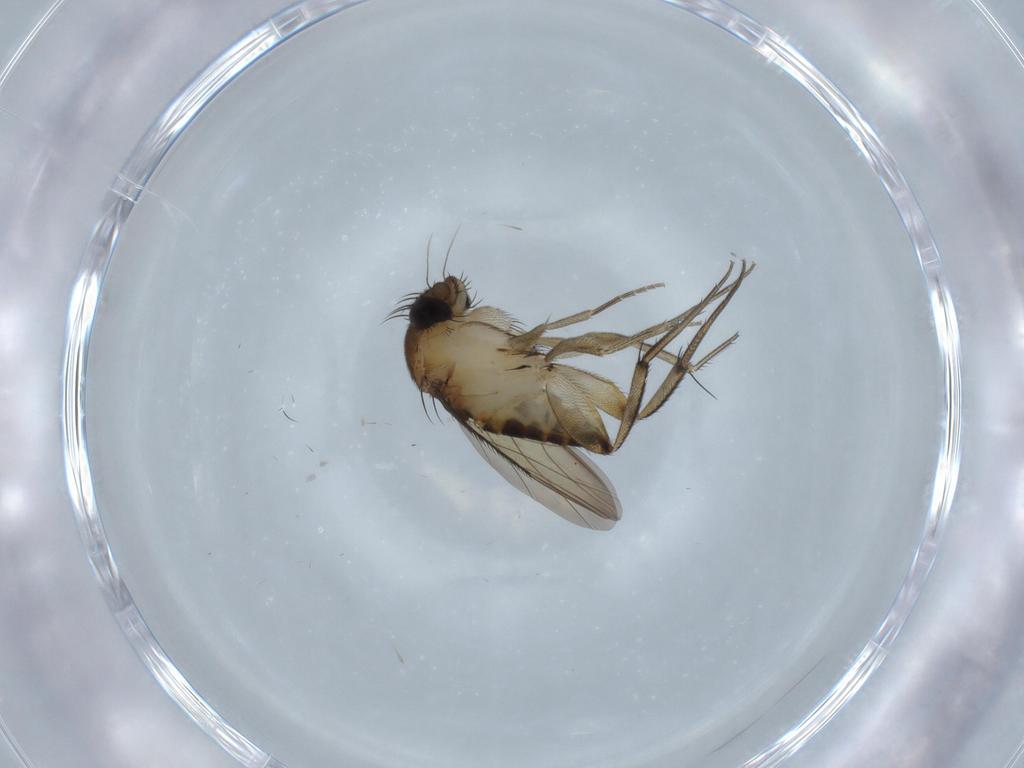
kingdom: Animalia
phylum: Arthropoda
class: Insecta
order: Diptera
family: Phoridae
